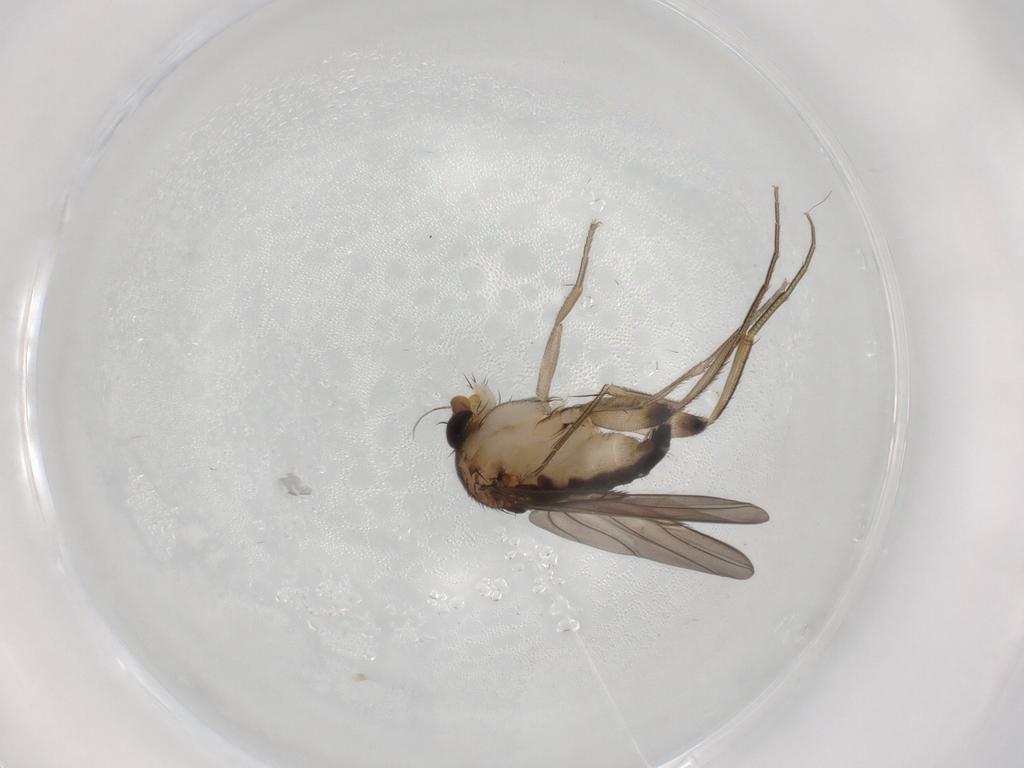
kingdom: Animalia
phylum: Arthropoda
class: Insecta
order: Diptera
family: Phoridae
